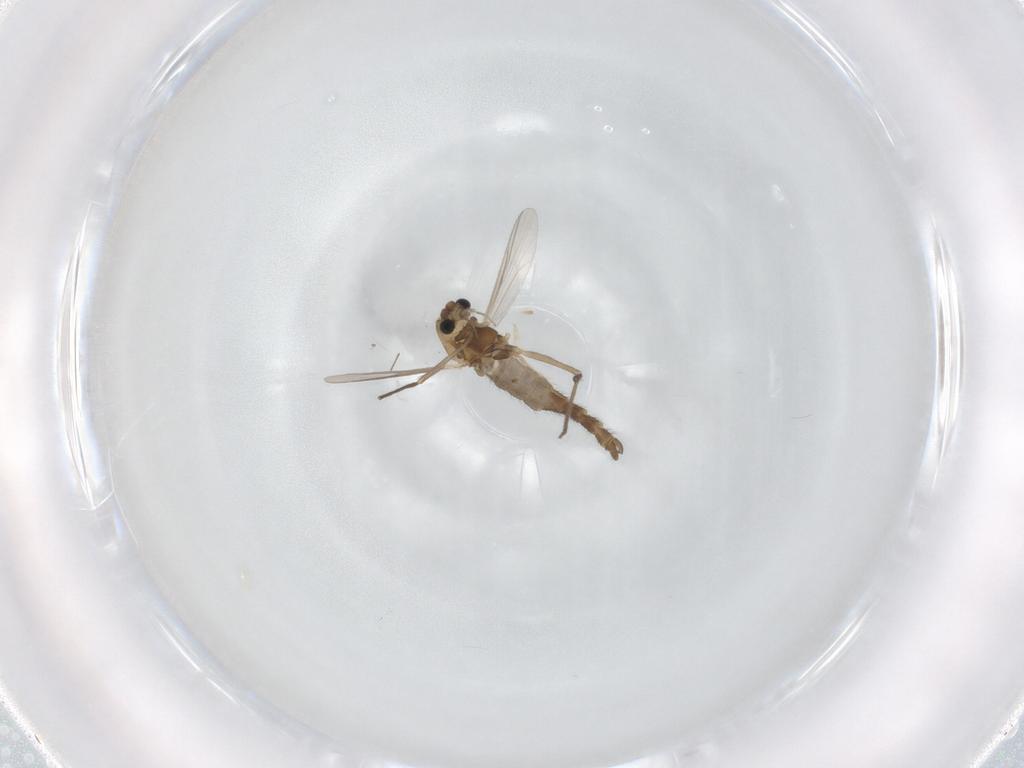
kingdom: Animalia
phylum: Arthropoda
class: Insecta
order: Diptera
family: Chironomidae
